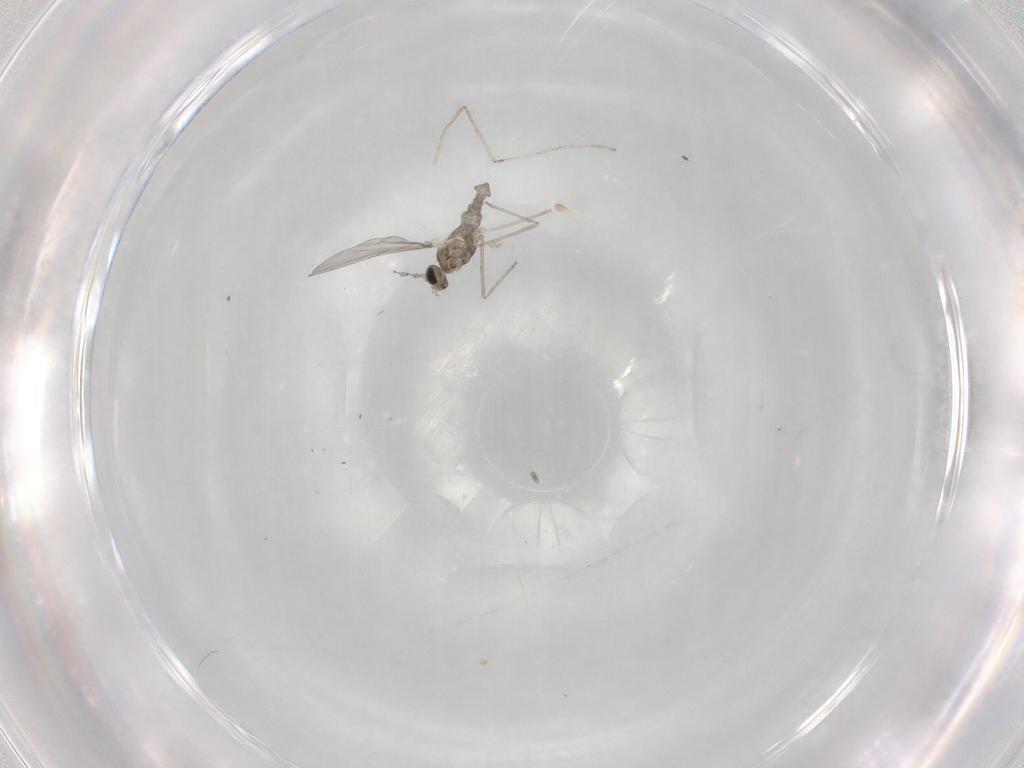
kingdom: Animalia
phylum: Arthropoda
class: Insecta
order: Diptera
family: Cecidomyiidae
